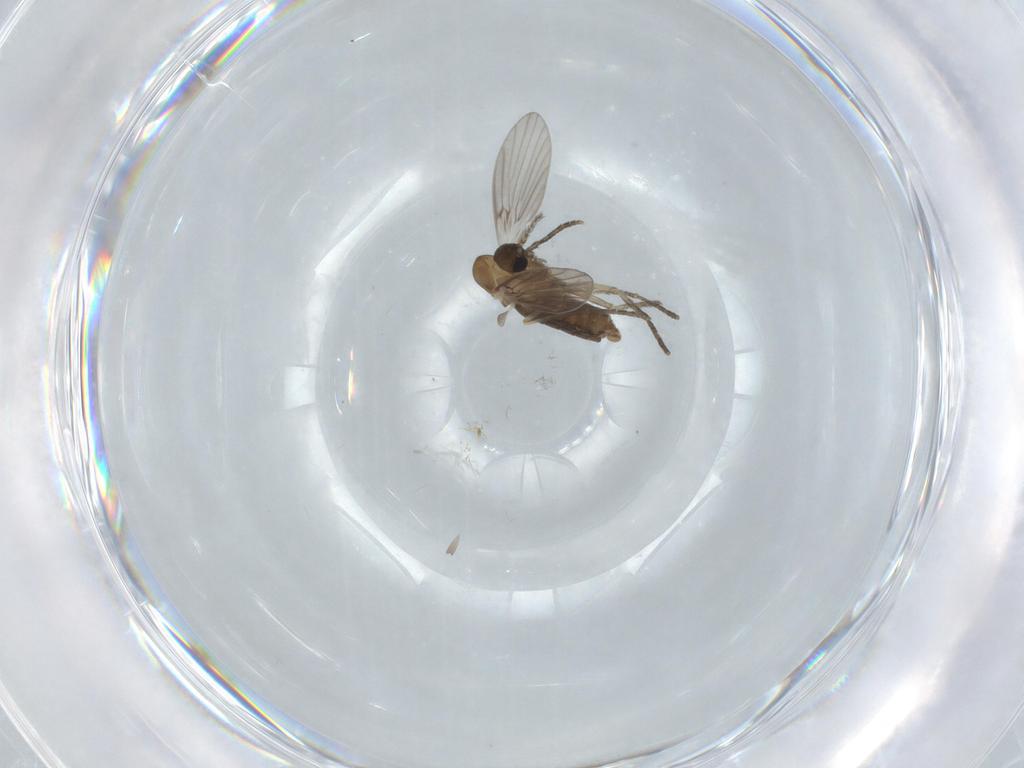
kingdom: Animalia
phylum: Arthropoda
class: Insecta
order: Diptera
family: Psychodidae
